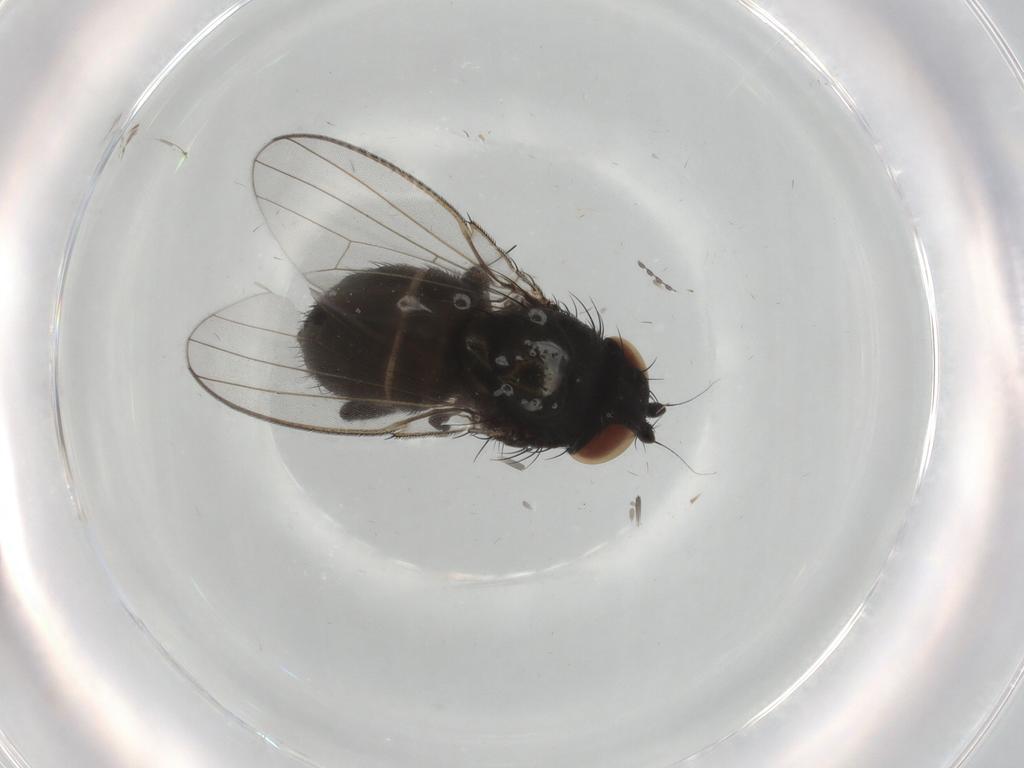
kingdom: Animalia
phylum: Arthropoda
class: Insecta
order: Diptera
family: Milichiidae
